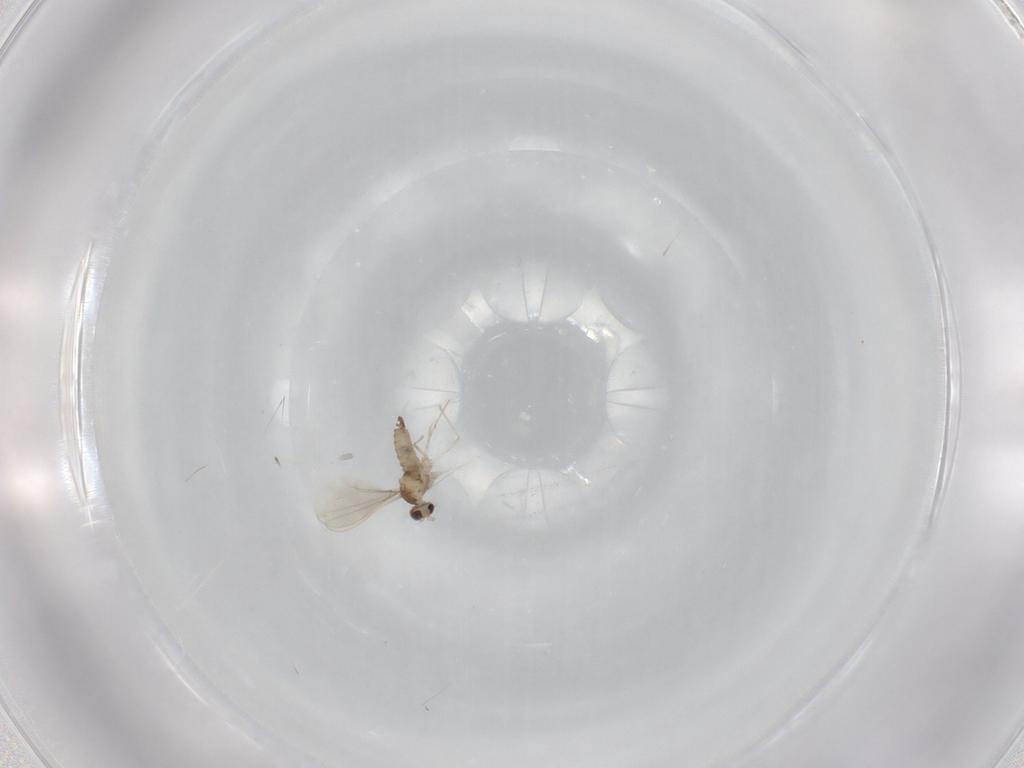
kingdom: Animalia
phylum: Arthropoda
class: Insecta
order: Diptera
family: Cecidomyiidae
